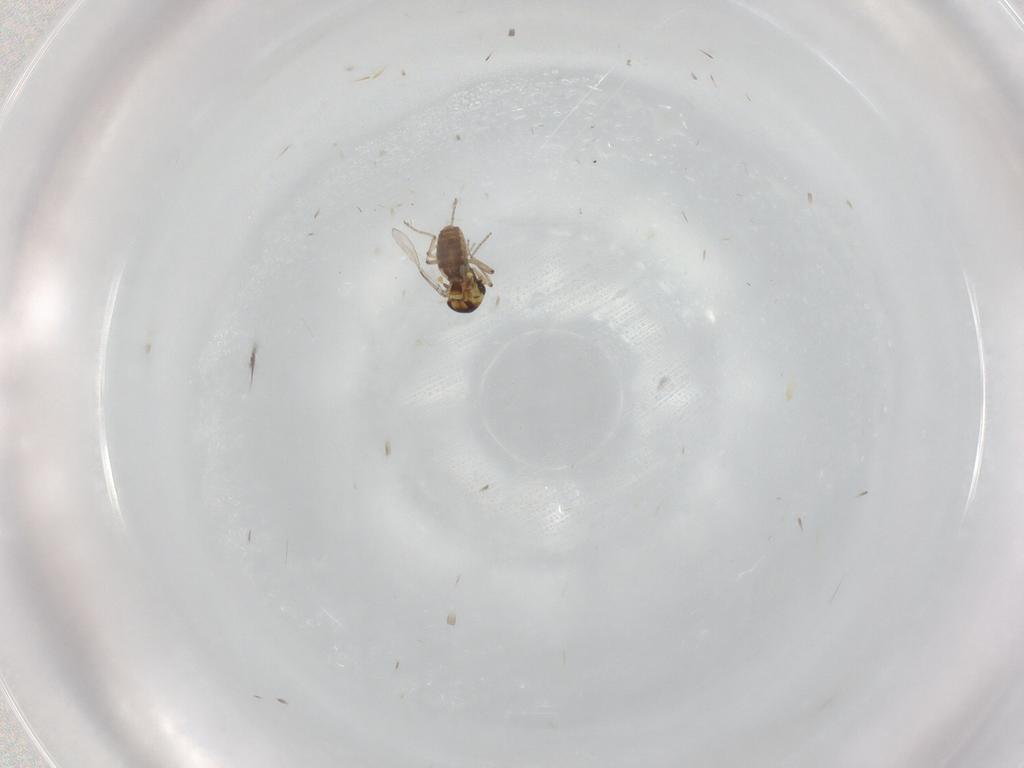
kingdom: Animalia
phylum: Arthropoda
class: Insecta
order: Diptera
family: Ceratopogonidae
